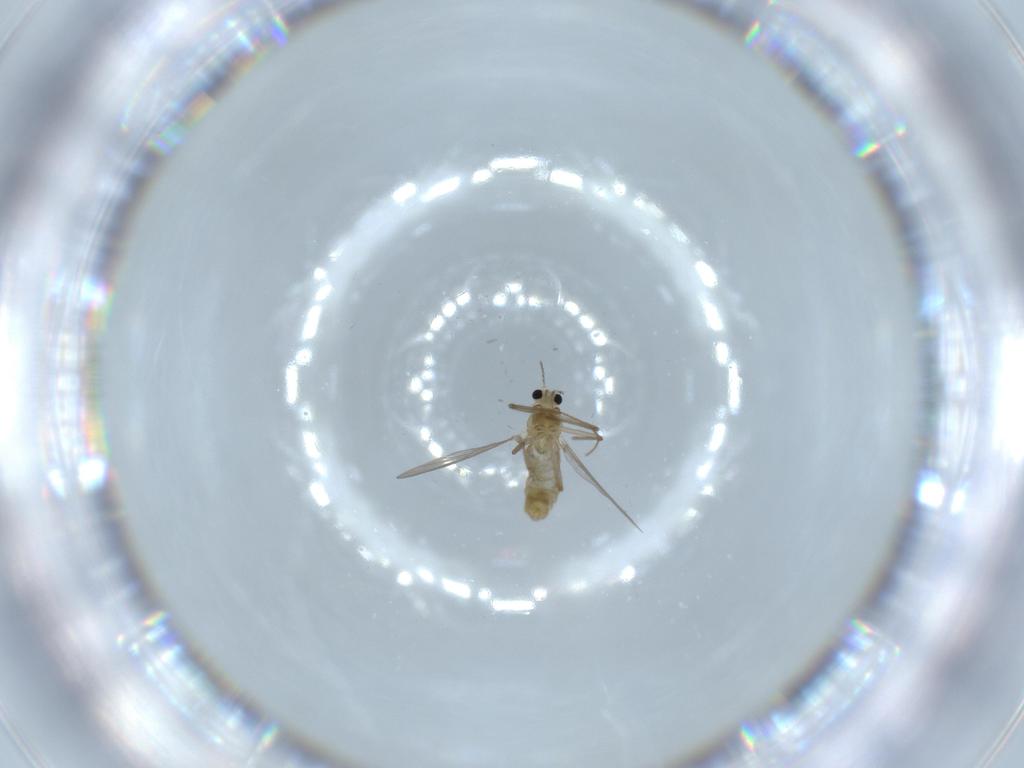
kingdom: Animalia
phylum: Arthropoda
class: Insecta
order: Diptera
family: Chironomidae
